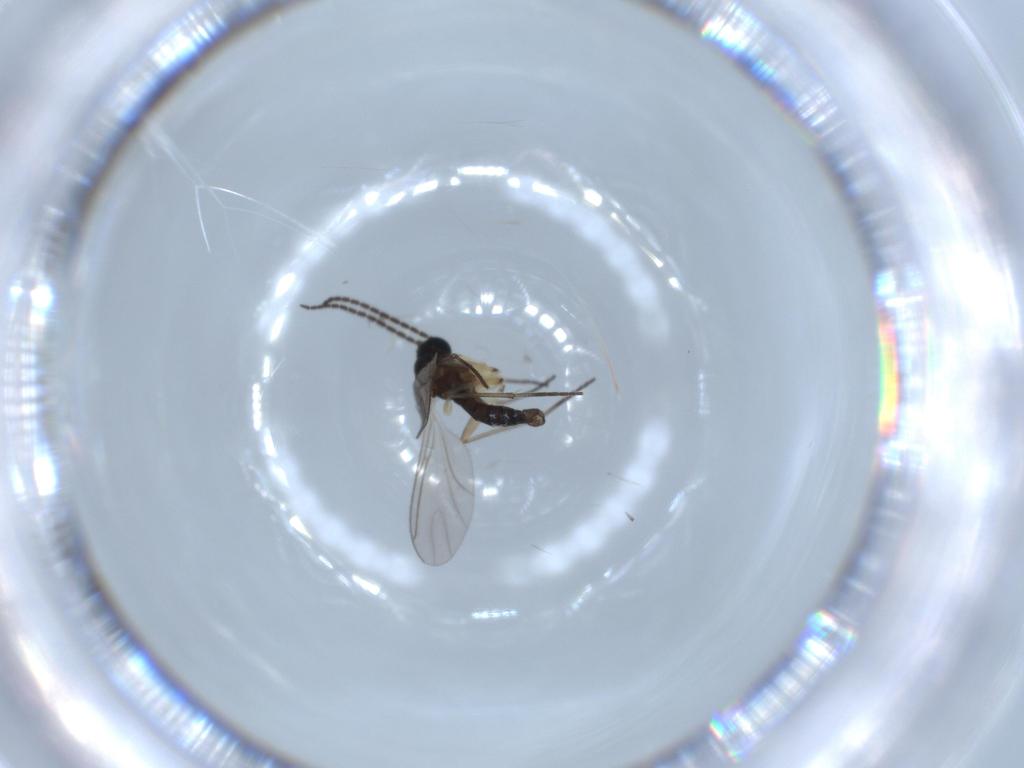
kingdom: Animalia
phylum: Arthropoda
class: Insecta
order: Diptera
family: Sciaridae
